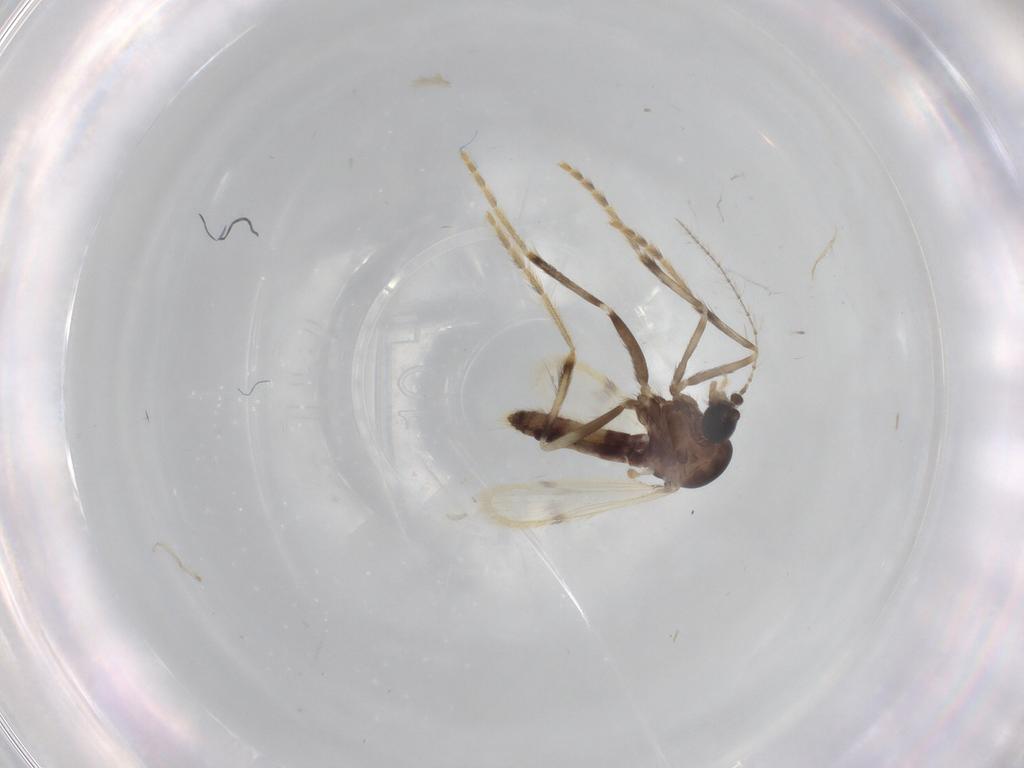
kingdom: Animalia
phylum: Arthropoda
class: Insecta
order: Diptera
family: Corethrellidae
